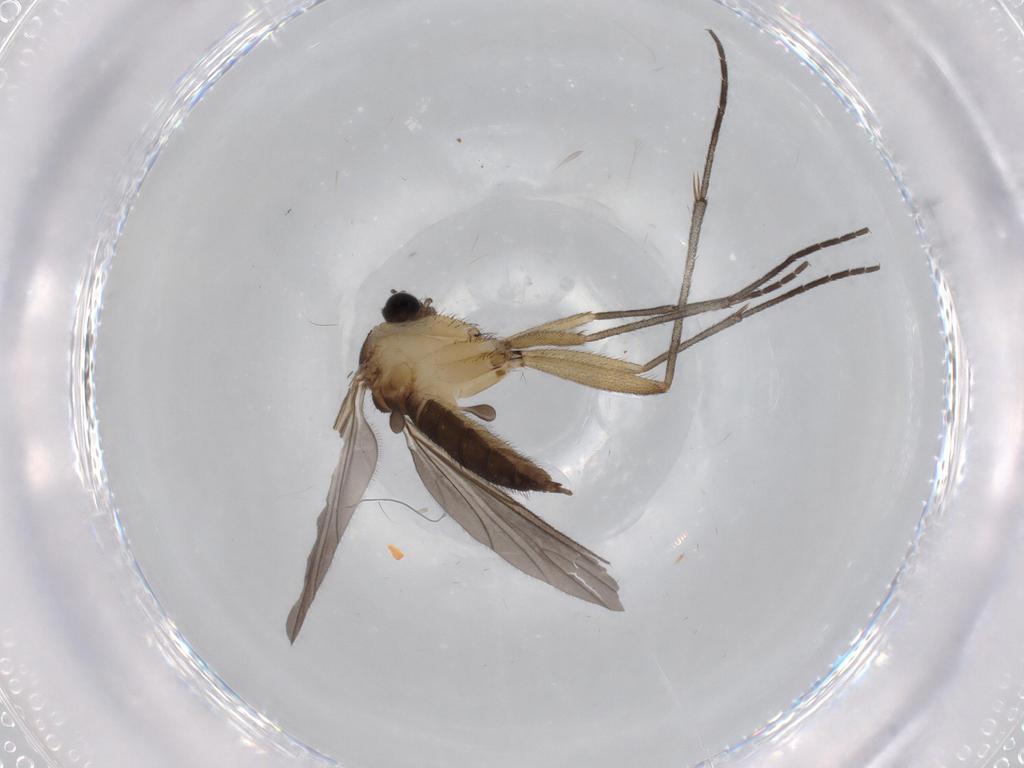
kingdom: Animalia
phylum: Arthropoda
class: Insecta
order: Diptera
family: Sciaridae
